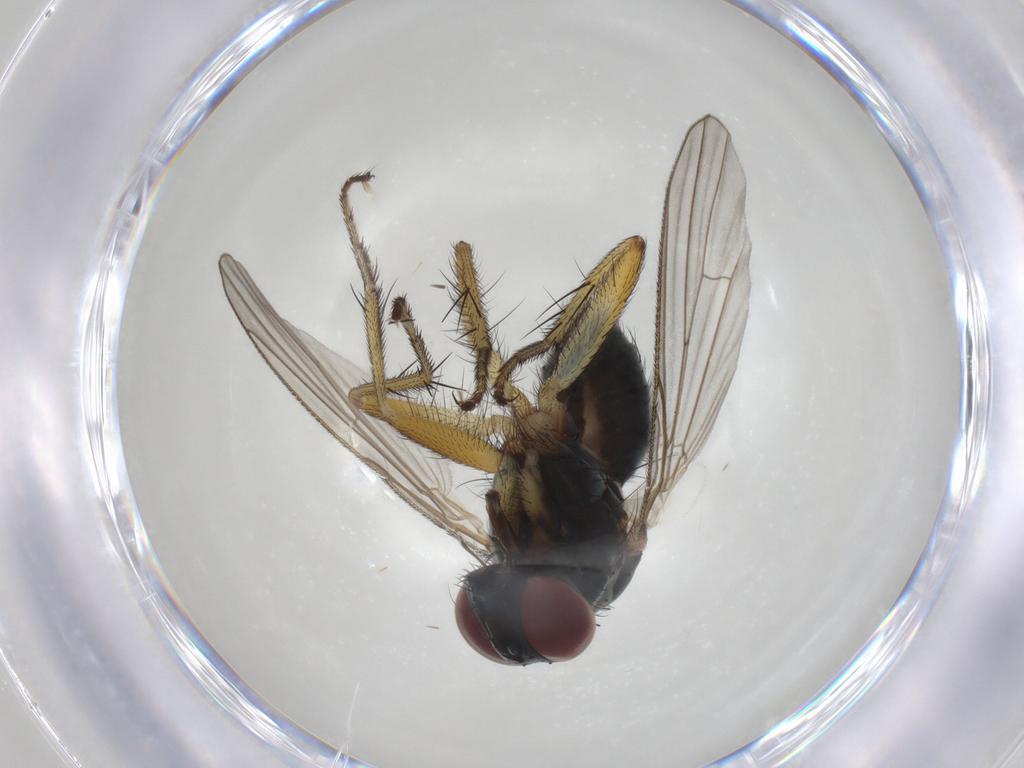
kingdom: Animalia
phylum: Arthropoda
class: Insecta
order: Diptera
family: Muscidae
